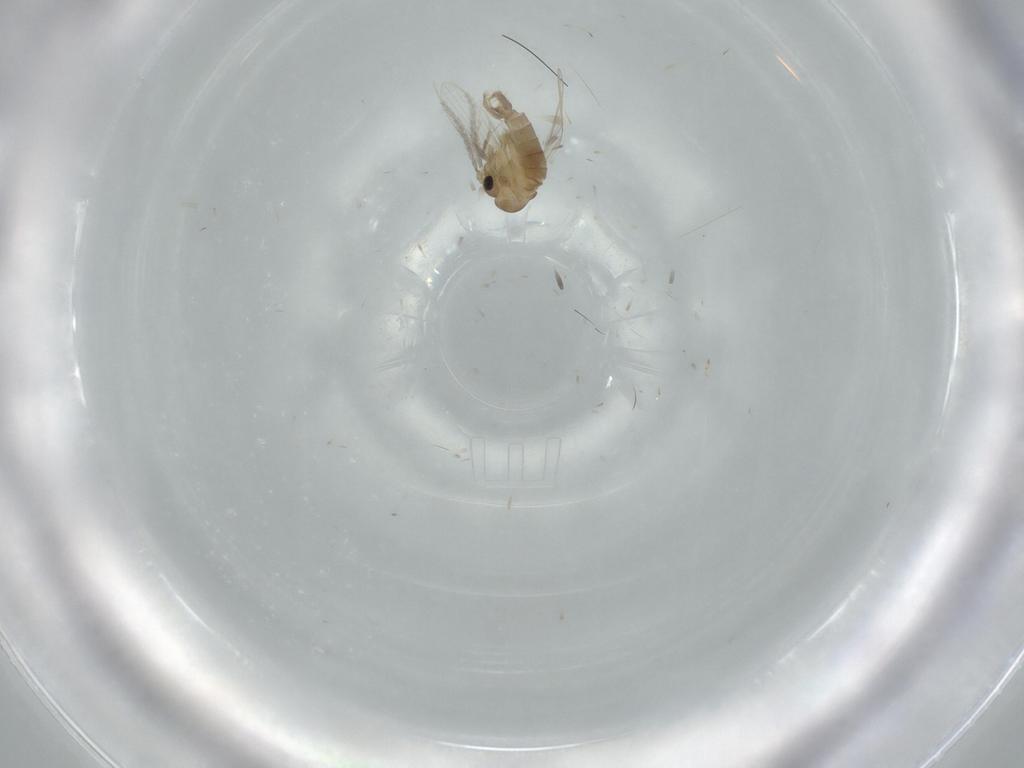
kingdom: Animalia
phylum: Arthropoda
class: Insecta
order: Diptera
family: Psychodidae
